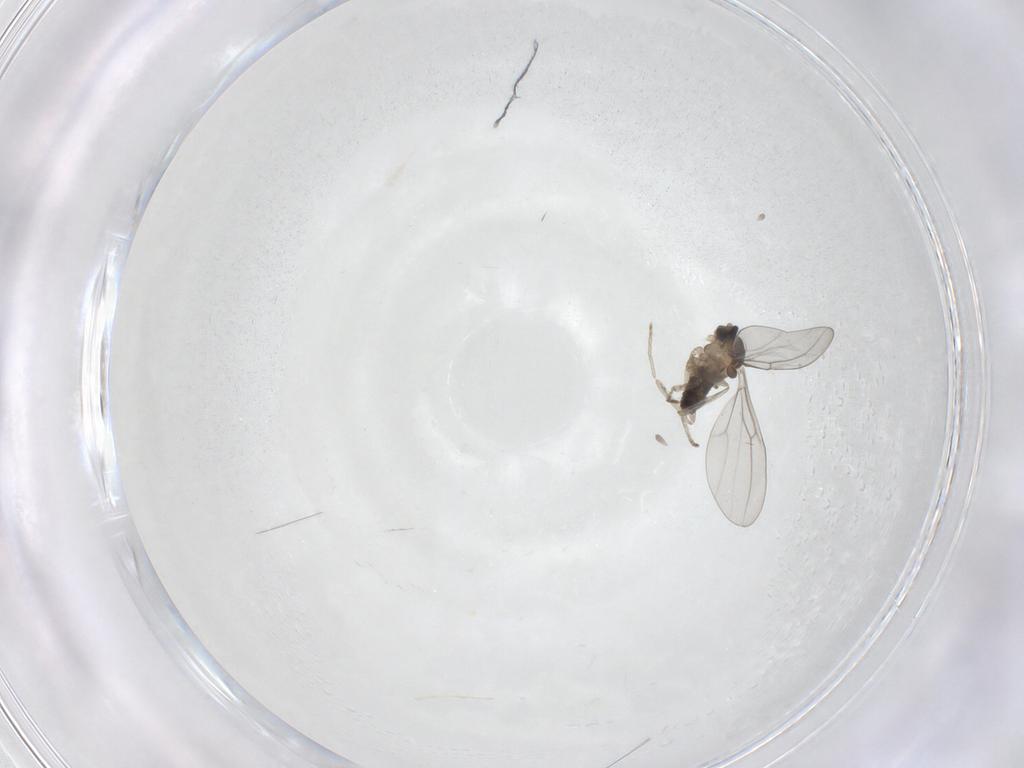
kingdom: Animalia
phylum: Arthropoda
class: Insecta
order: Diptera
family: Cecidomyiidae
